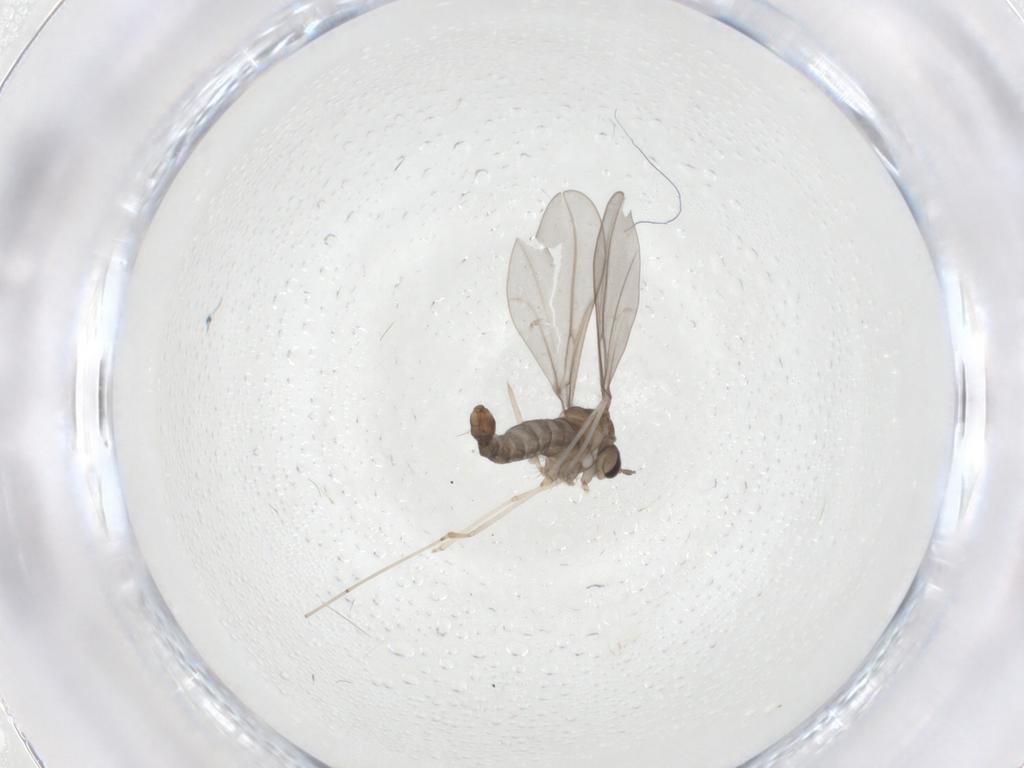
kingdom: Animalia
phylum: Arthropoda
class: Insecta
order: Diptera
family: Cecidomyiidae
